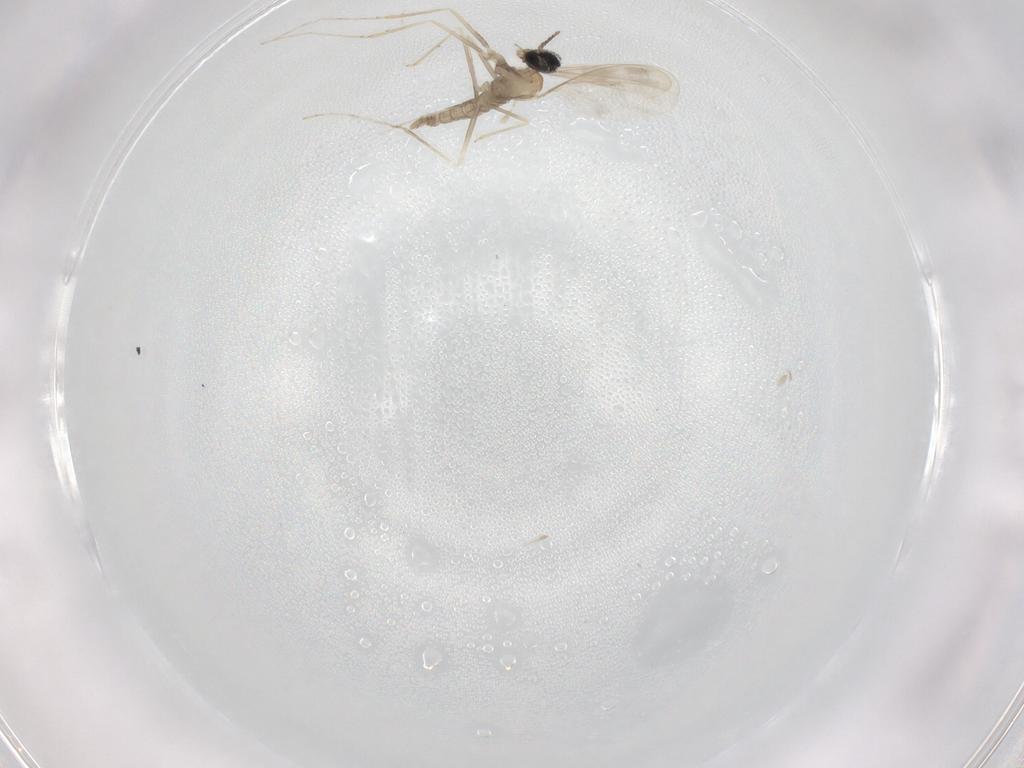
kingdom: Animalia
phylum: Arthropoda
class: Insecta
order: Diptera
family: Cecidomyiidae
